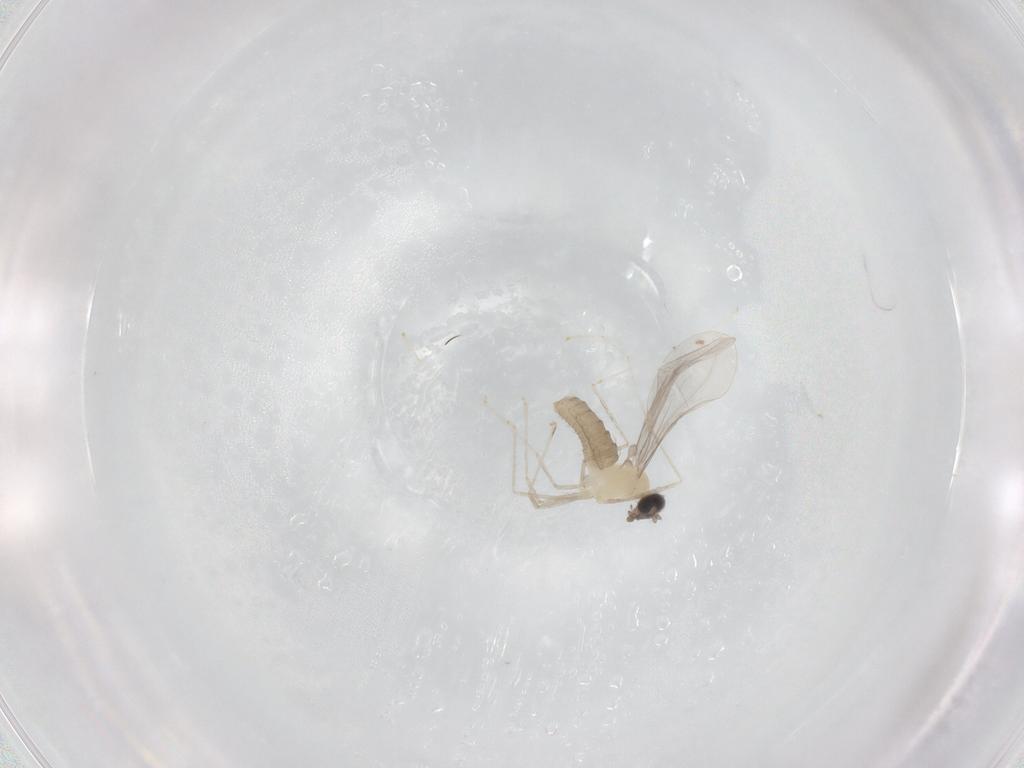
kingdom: Animalia
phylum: Arthropoda
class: Insecta
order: Diptera
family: Cecidomyiidae
